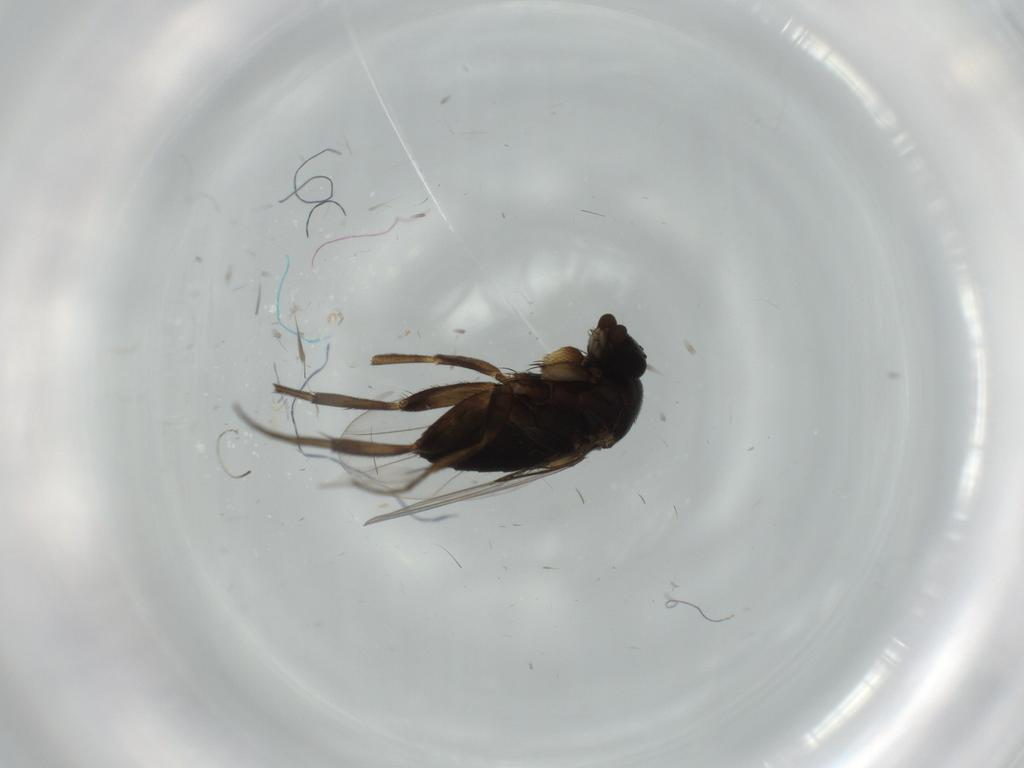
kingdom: Animalia
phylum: Arthropoda
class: Insecta
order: Diptera
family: Phoridae
